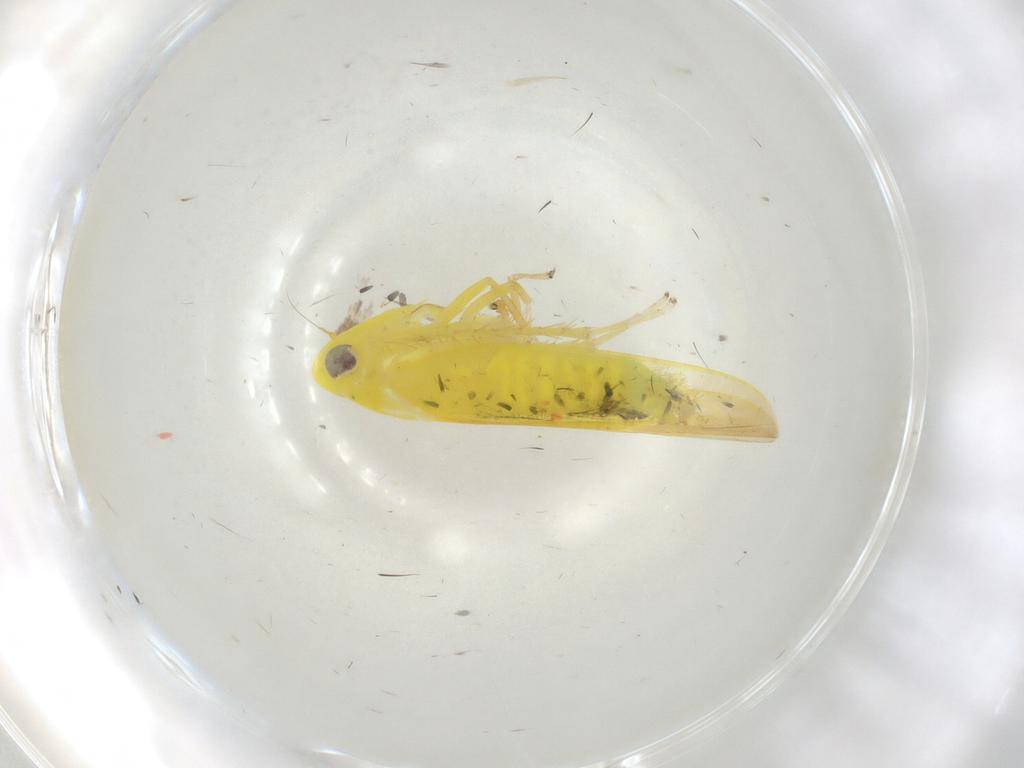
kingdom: Animalia
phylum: Arthropoda
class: Insecta
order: Hemiptera
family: Cicadellidae
